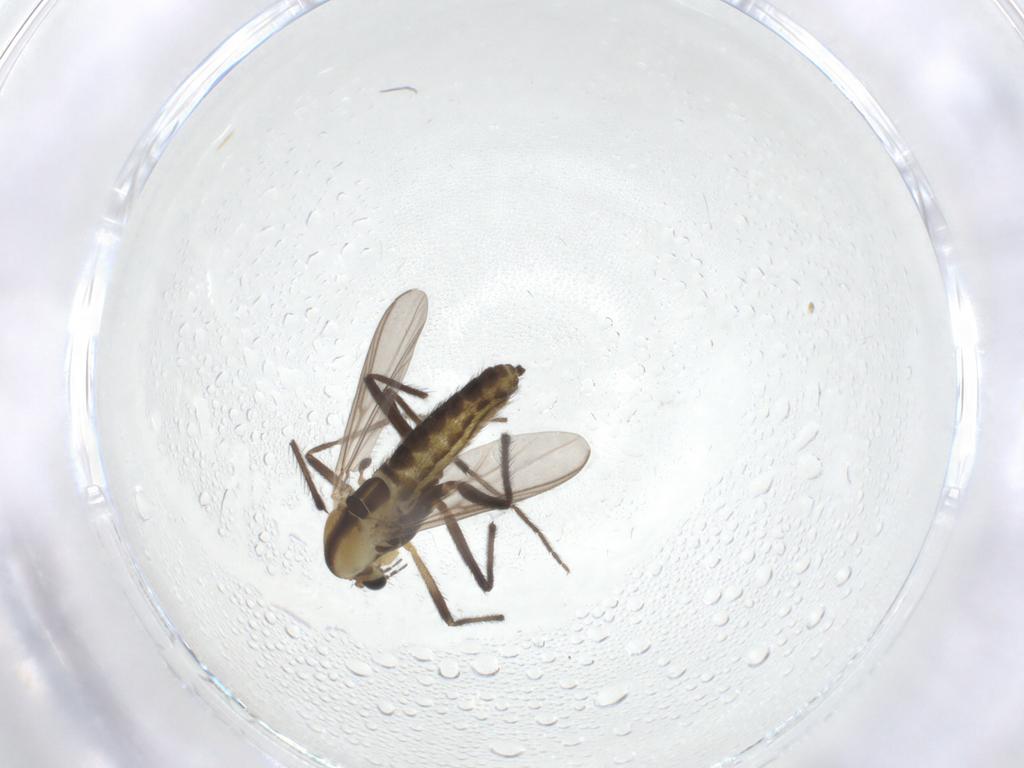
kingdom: Animalia
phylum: Arthropoda
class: Insecta
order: Diptera
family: Chironomidae
